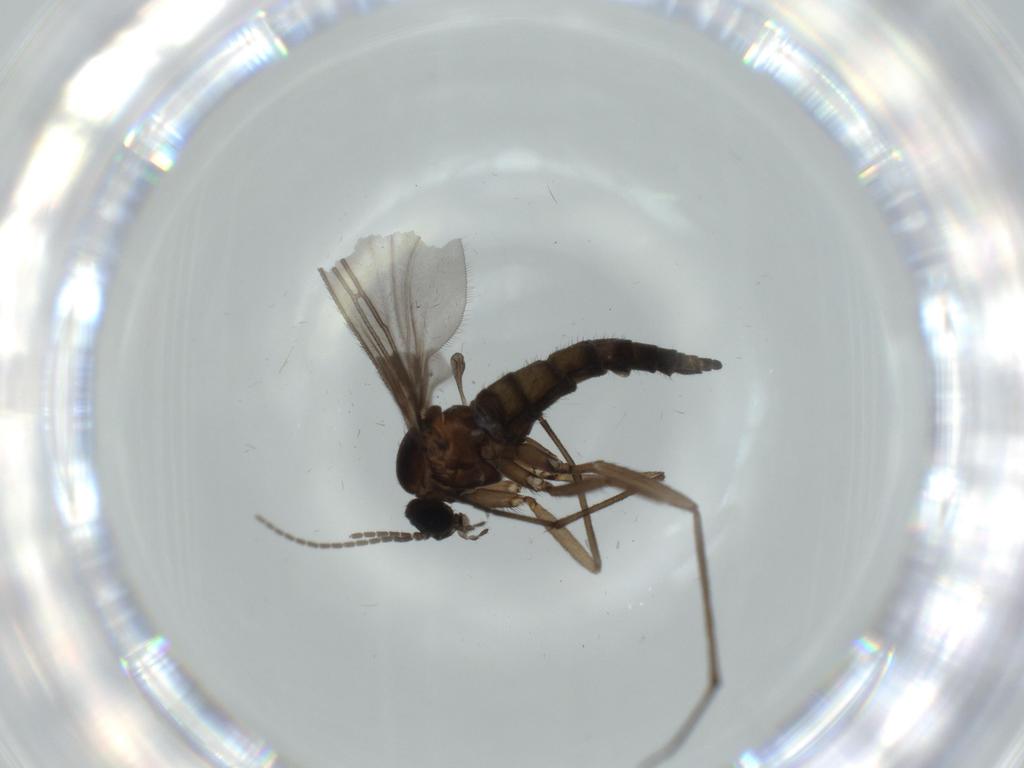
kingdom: Animalia
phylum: Arthropoda
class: Insecta
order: Diptera
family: Sciaridae
